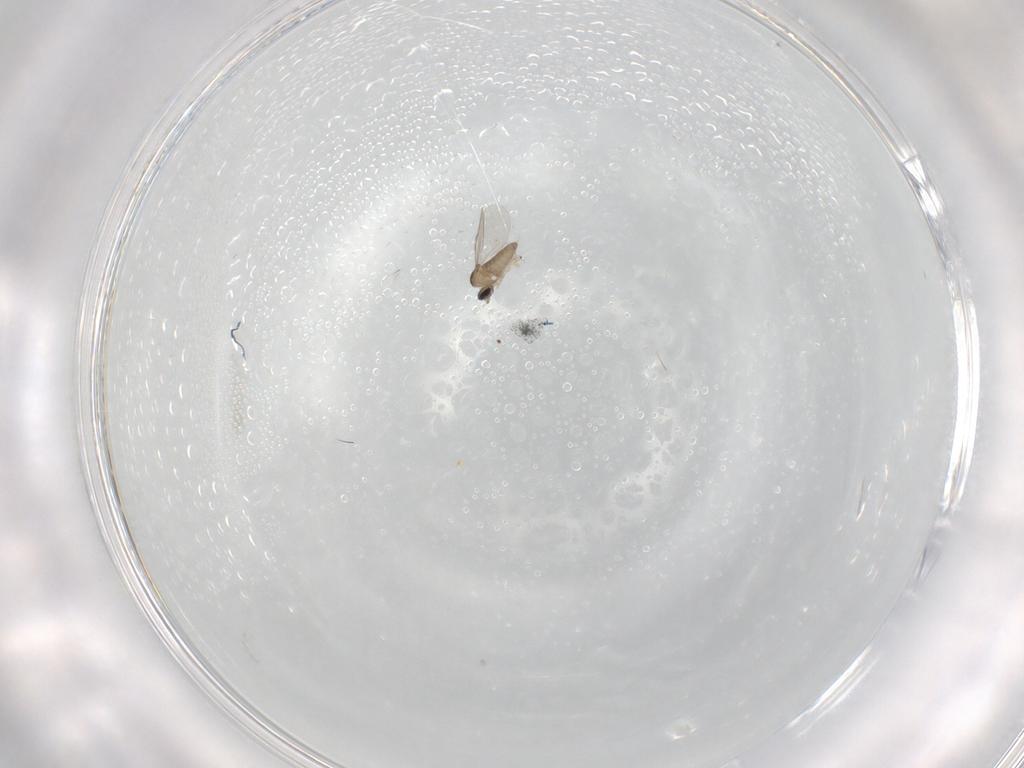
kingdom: Animalia
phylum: Arthropoda
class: Insecta
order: Diptera
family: Cecidomyiidae
